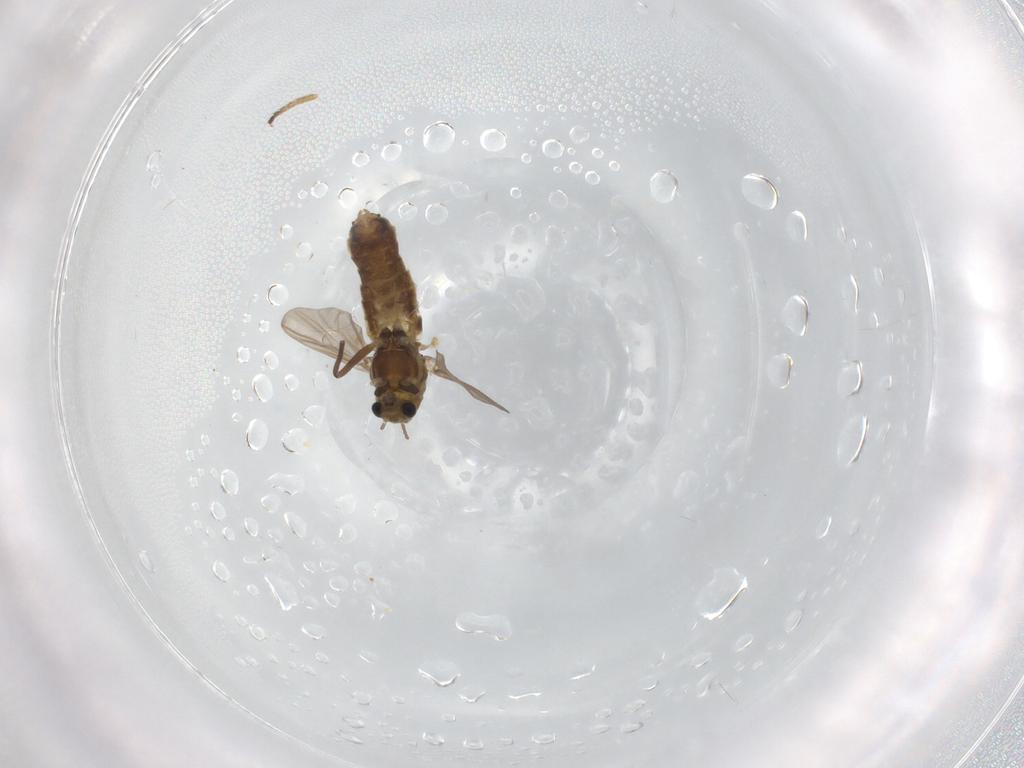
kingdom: Animalia
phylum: Arthropoda
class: Insecta
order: Diptera
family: Chironomidae
